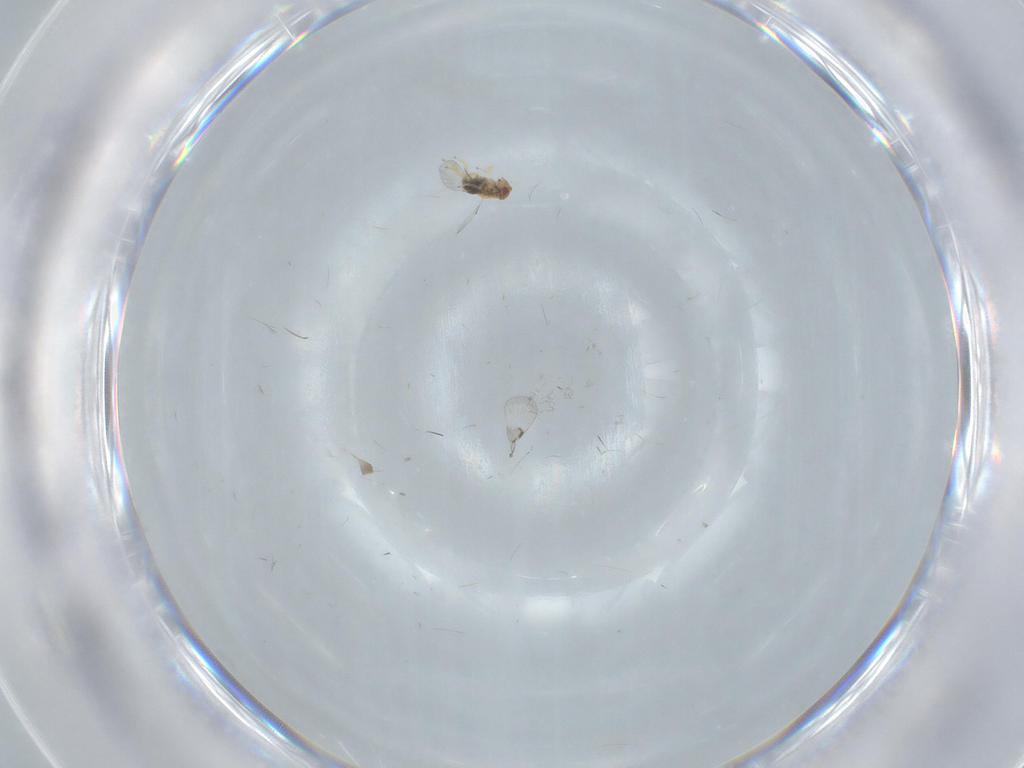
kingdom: Animalia
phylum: Arthropoda
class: Insecta
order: Hymenoptera
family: Trichogrammatidae
